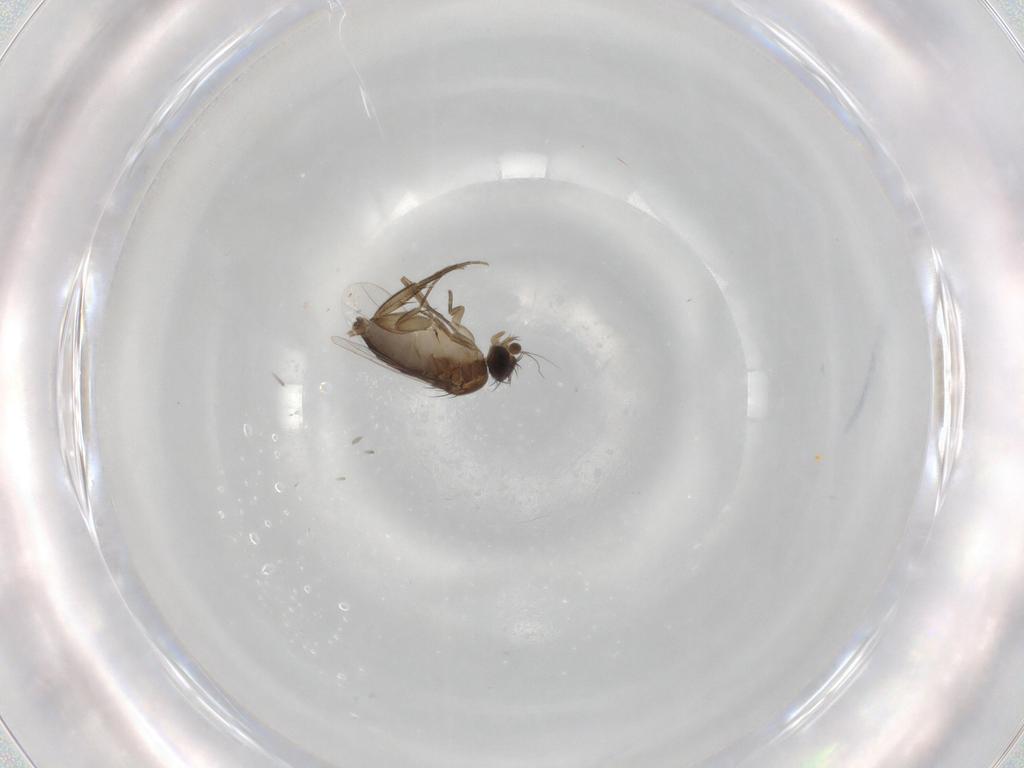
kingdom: Animalia
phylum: Arthropoda
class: Insecta
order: Diptera
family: Phoridae
